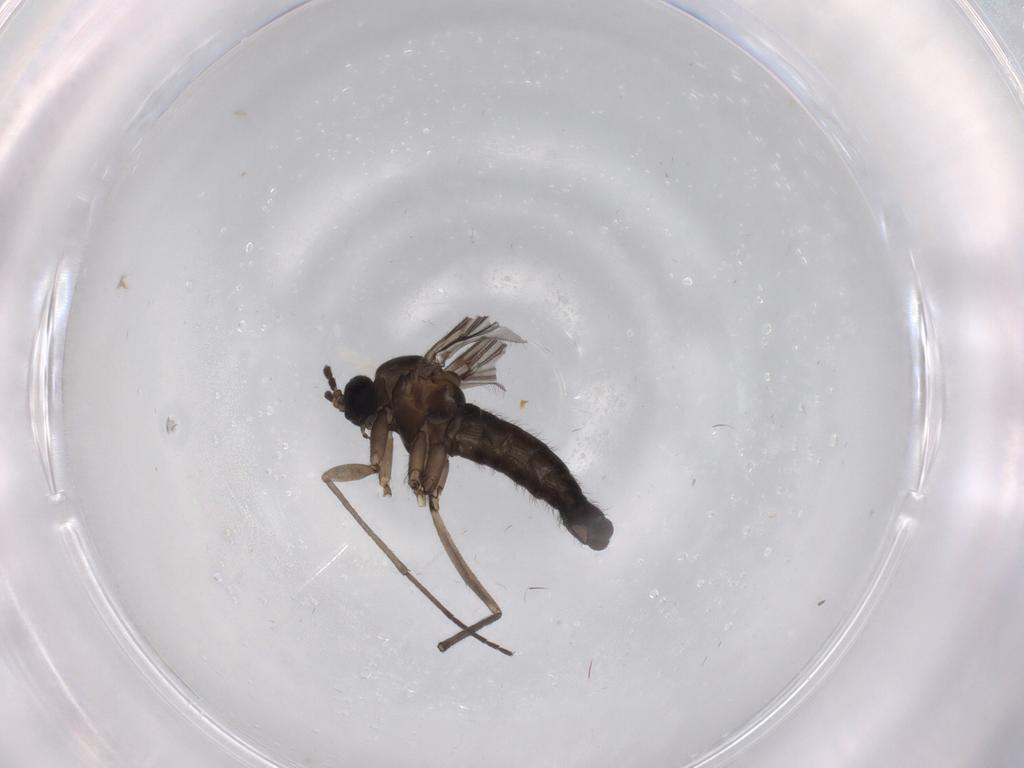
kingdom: Animalia
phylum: Arthropoda
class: Insecta
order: Diptera
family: Sciaridae
